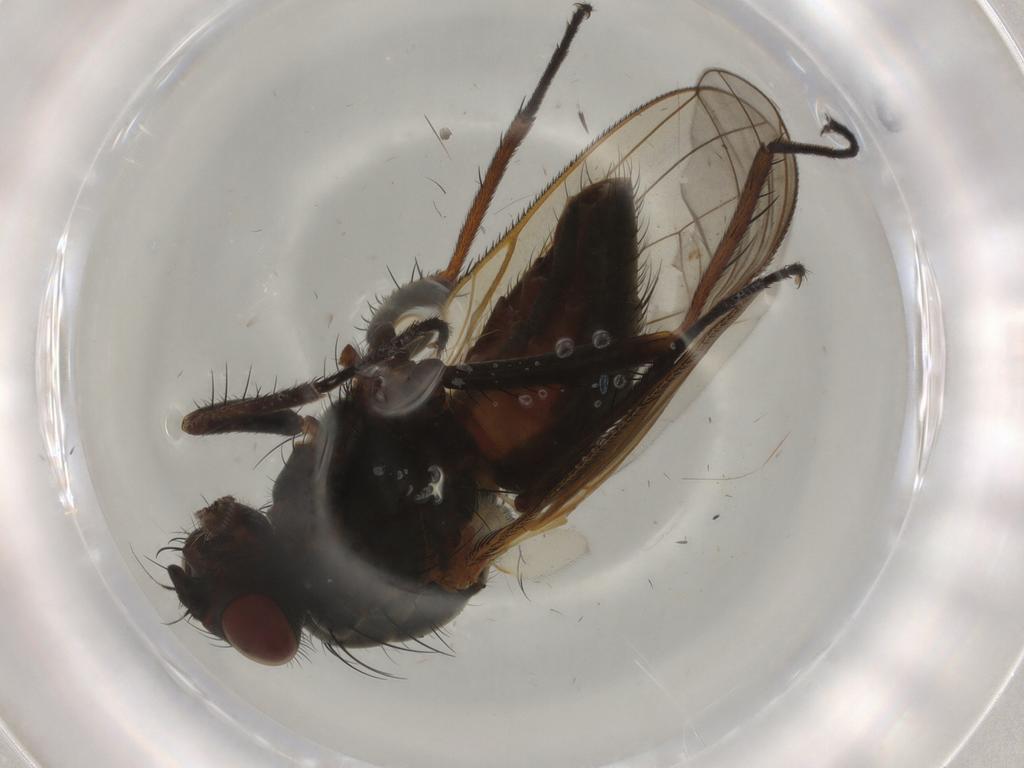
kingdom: Animalia
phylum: Arthropoda
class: Insecta
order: Diptera
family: Anthomyiidae
